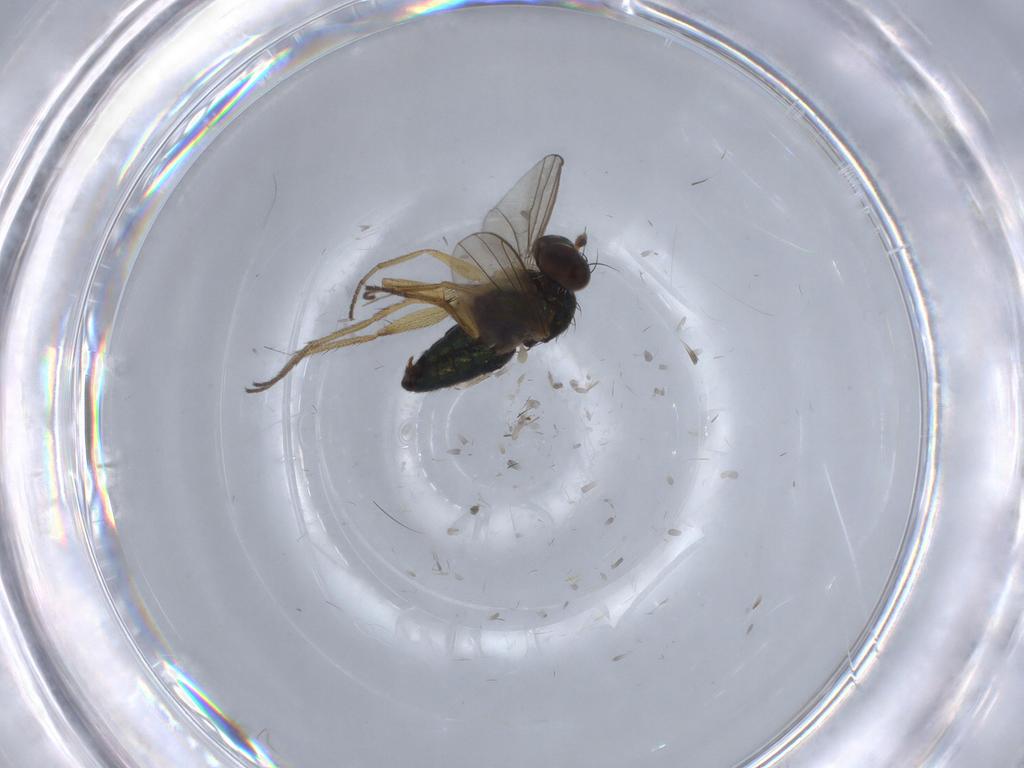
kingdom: Animalia
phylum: Arthropoda
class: Insecta
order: Diptera
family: Dolichopodidae
